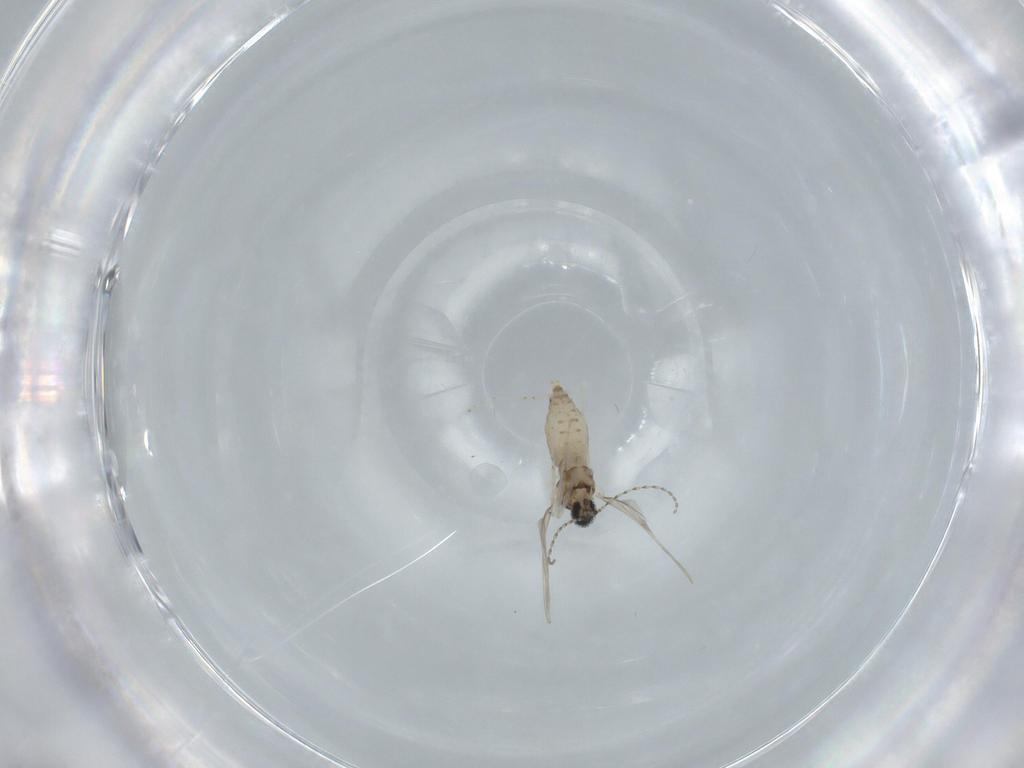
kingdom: Animalia
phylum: Arthropoda
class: Insecta
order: Diptera
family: Cecidomyiidae
